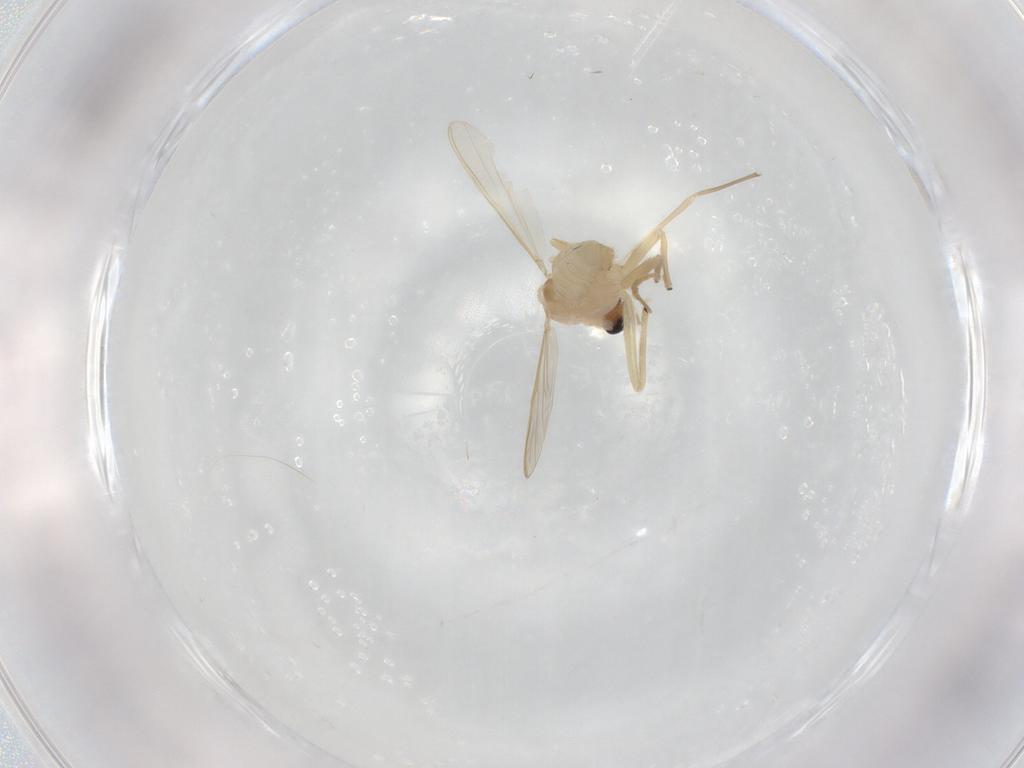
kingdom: Animalia
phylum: Arthropoda
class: Insecta
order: Diptera
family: Chironomidae
